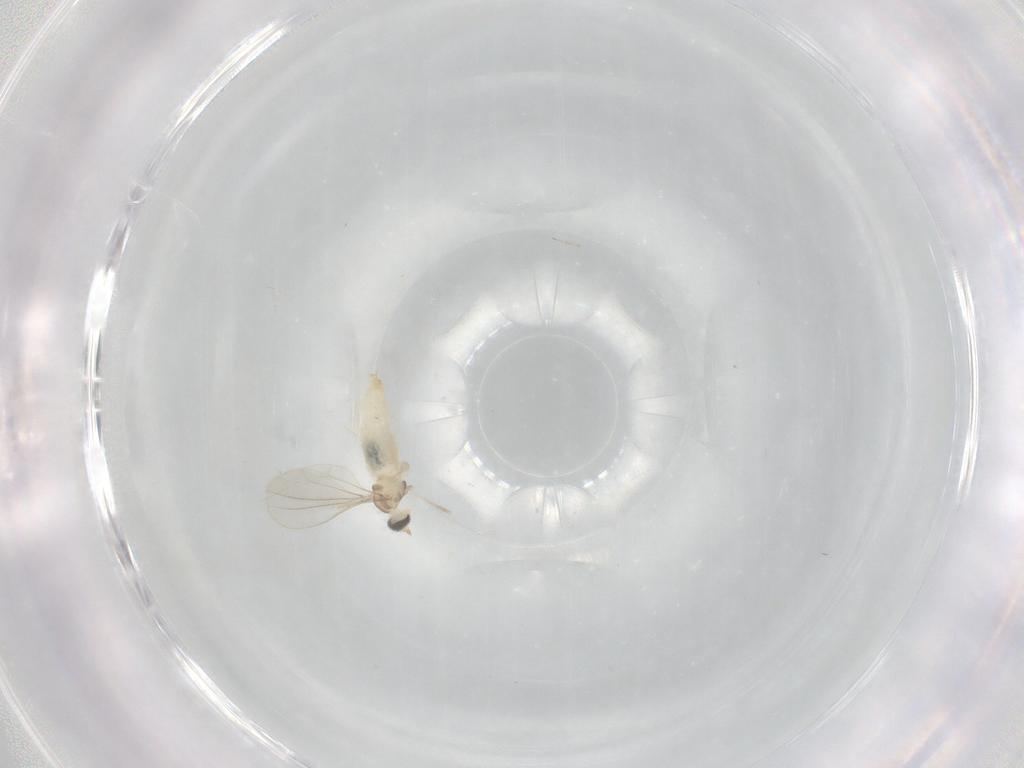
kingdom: Animalia
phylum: Arthropoda
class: Insecta
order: Diptera
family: Cecidomyiidae
